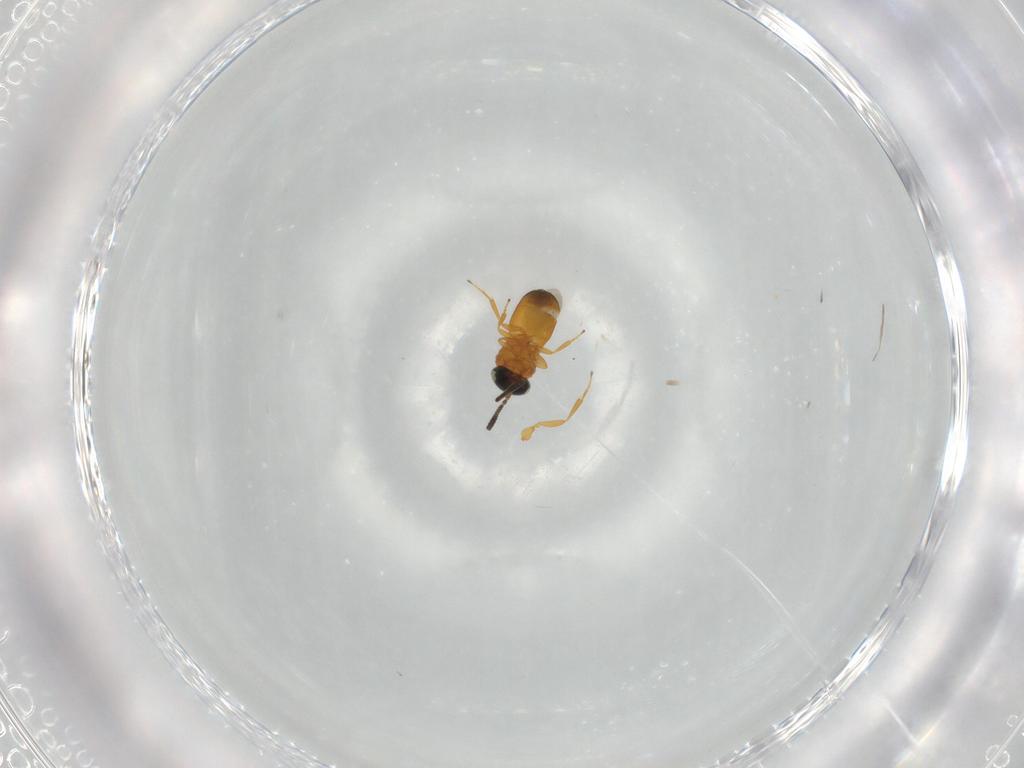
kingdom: Animalia
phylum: Arthropoda
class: Insecta
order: Hymenoptera
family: Scelionidae
